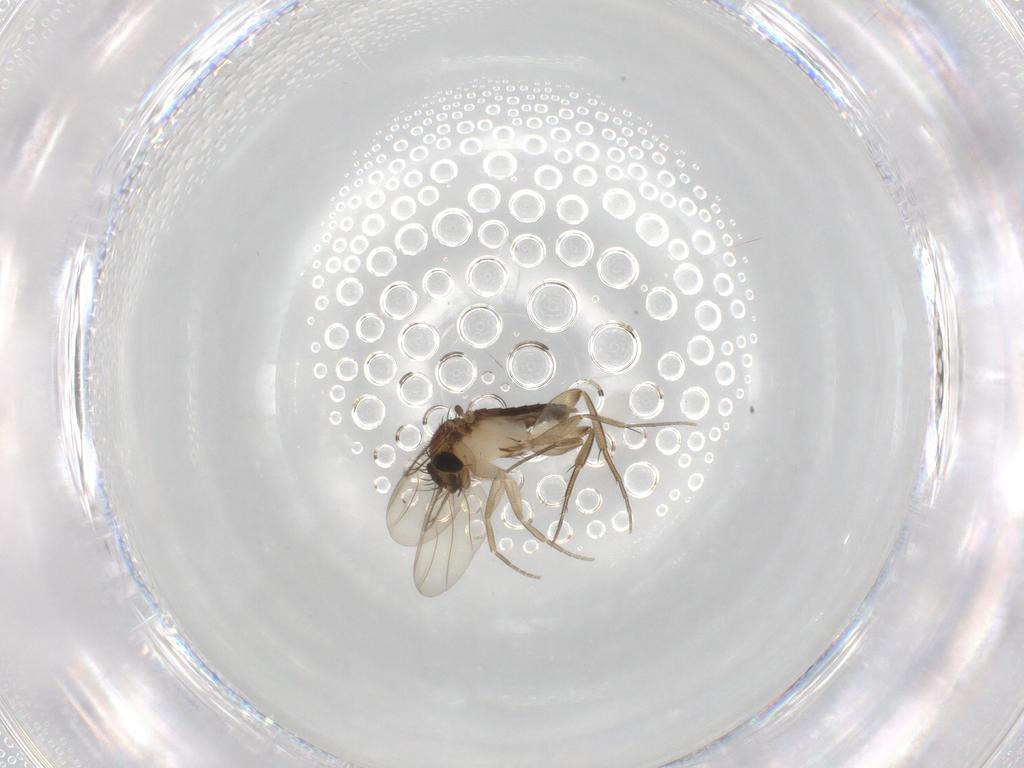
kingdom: Animalia
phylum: Arthropoda
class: Insecta
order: Diptera
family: Phoridae
